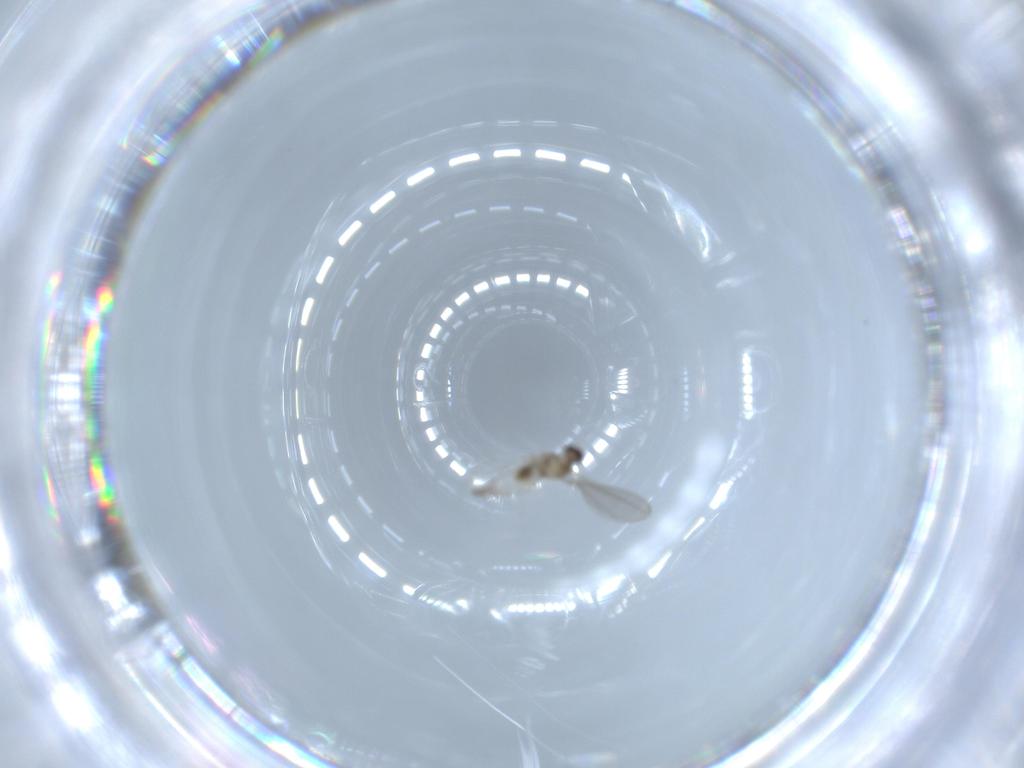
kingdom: Animalia
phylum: Arthropoda
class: Insecta
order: Diptera
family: Cecidomyiidae
